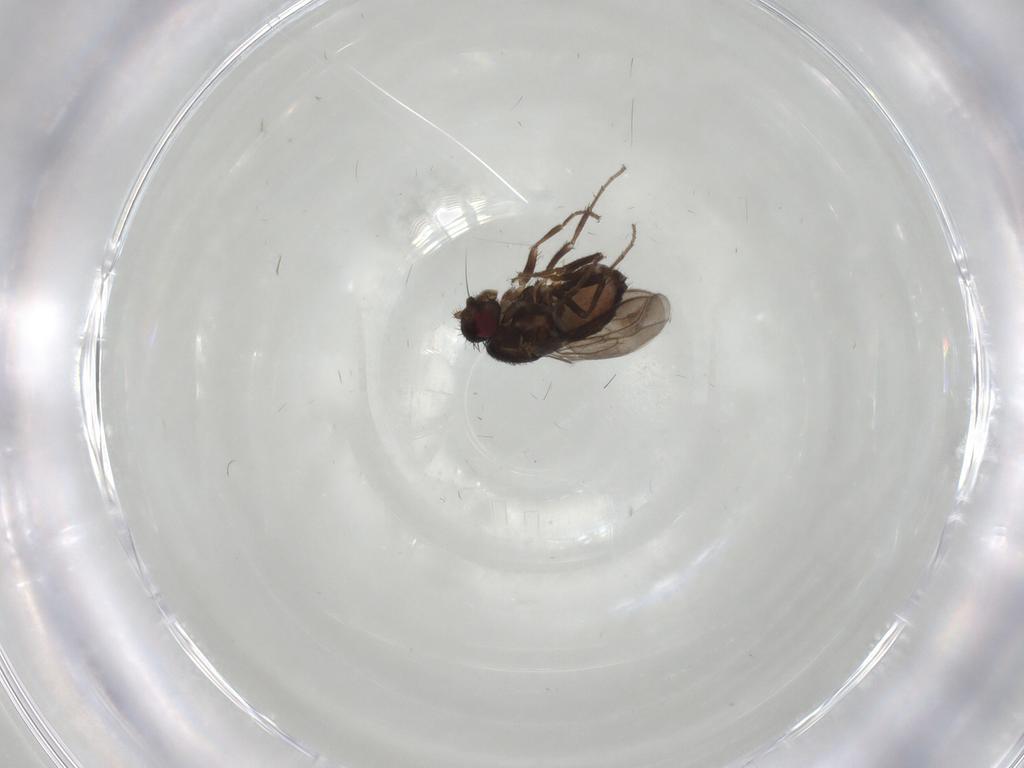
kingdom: Animalia
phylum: Arthropoda
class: Insecta
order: Diptera
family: Cecidomyiidae
